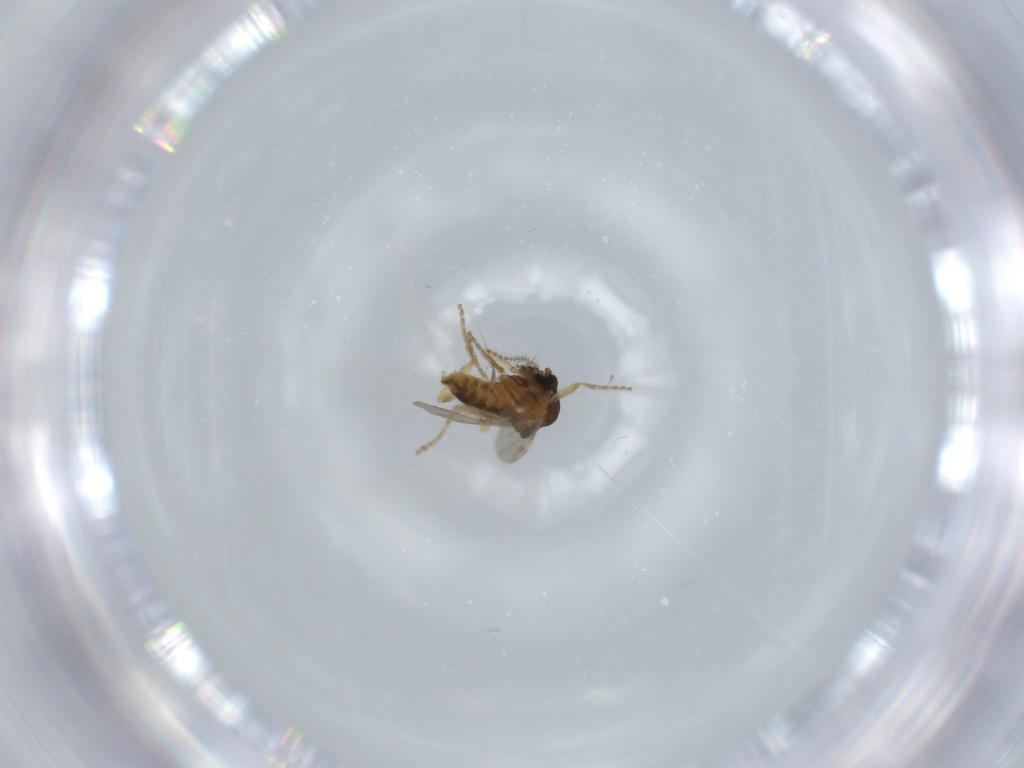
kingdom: Animalia
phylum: Arthropoda
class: Insecta
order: Diptera
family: Ceratopogonidae
